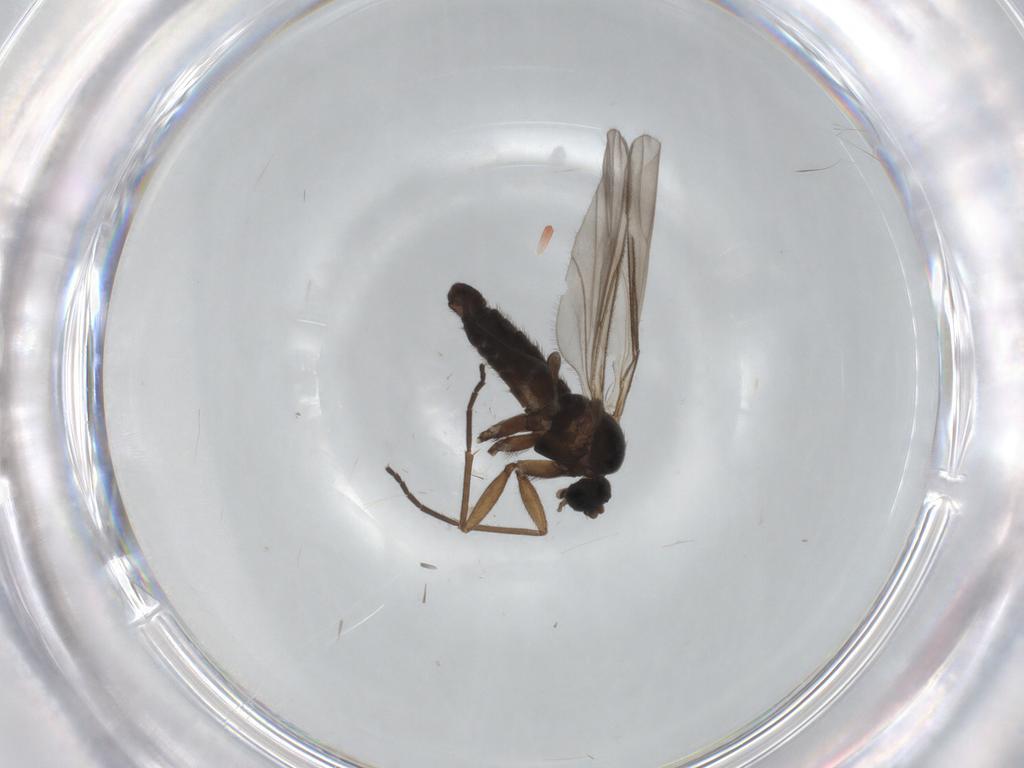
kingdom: Animalia
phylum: Arthropoda
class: Insecta
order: Diptera
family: Sciaridae
